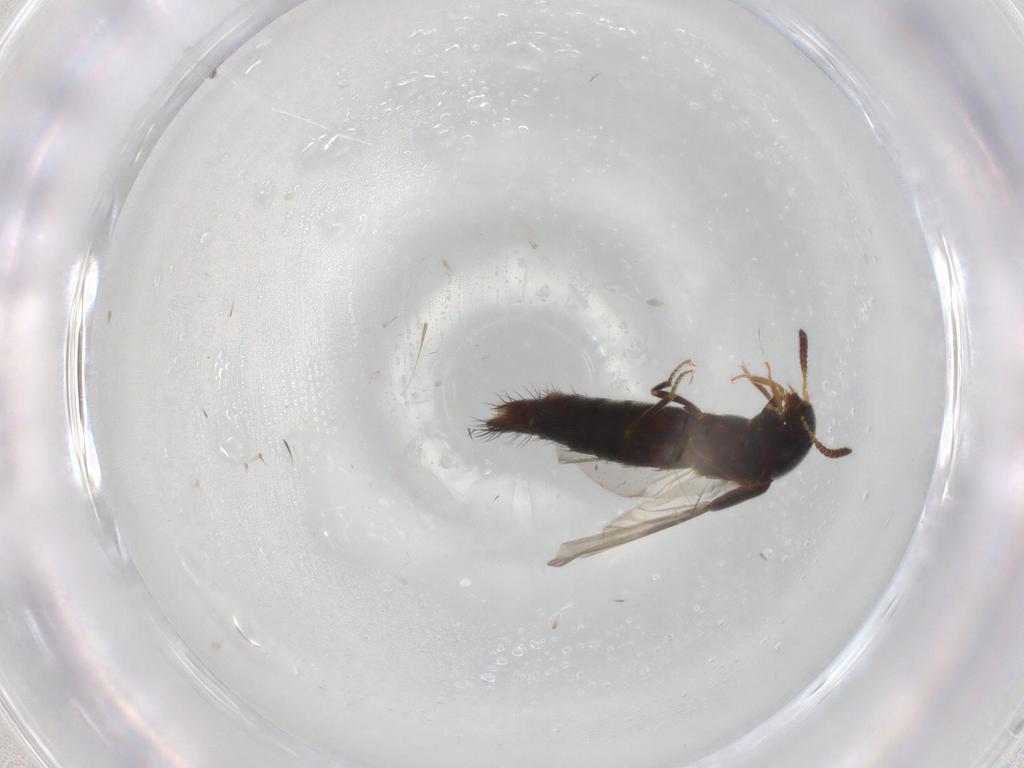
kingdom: Animalia
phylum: Arthropoda
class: Insecta
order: Coleoptera
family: Staphylinidae
